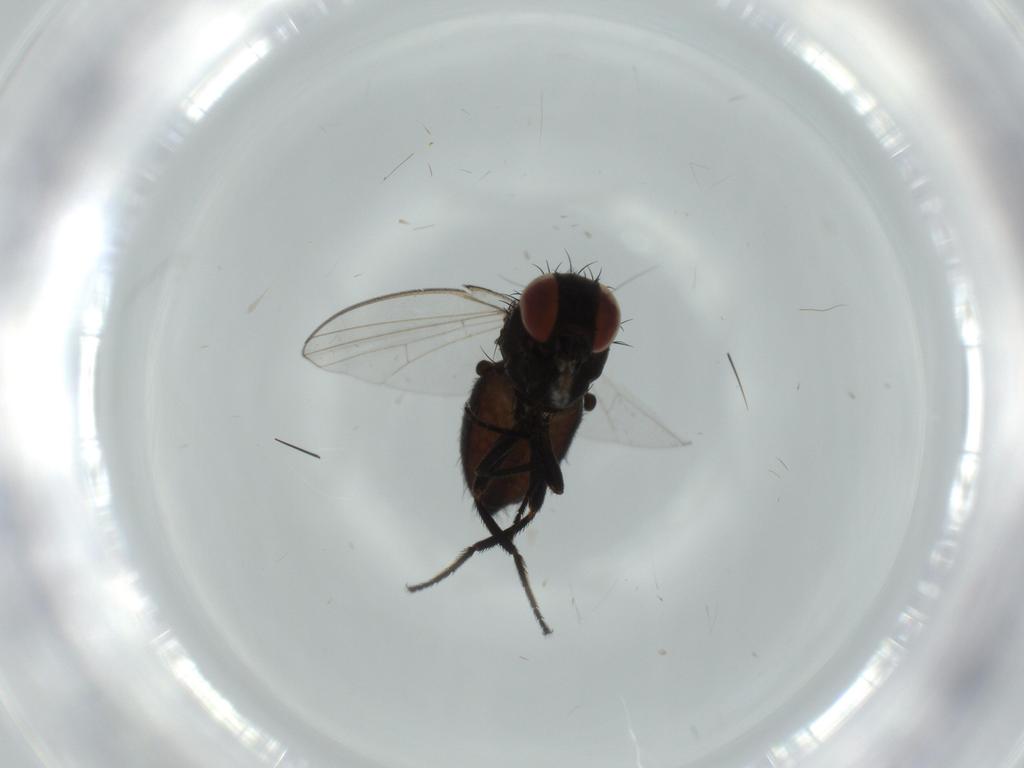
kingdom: Animalia
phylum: Arthropoda
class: Insecta
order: Diptera
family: Milichiidae
